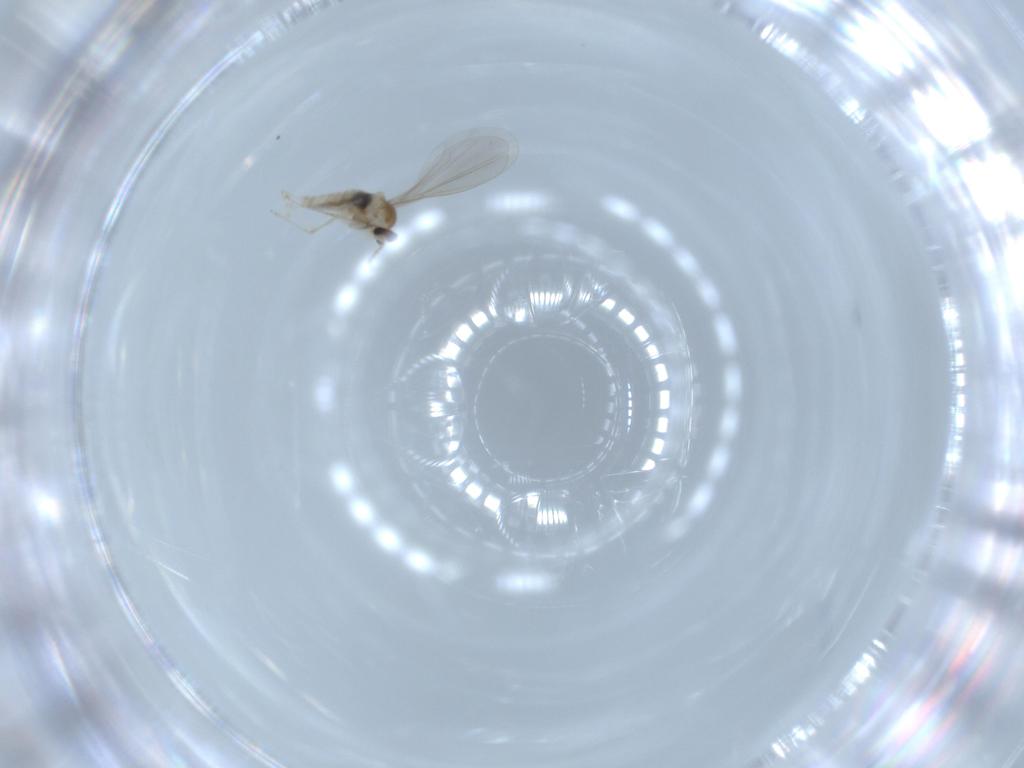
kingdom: Animalia
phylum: Arthropoda
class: Insecta
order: Diptera
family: Cecidomyiidae
